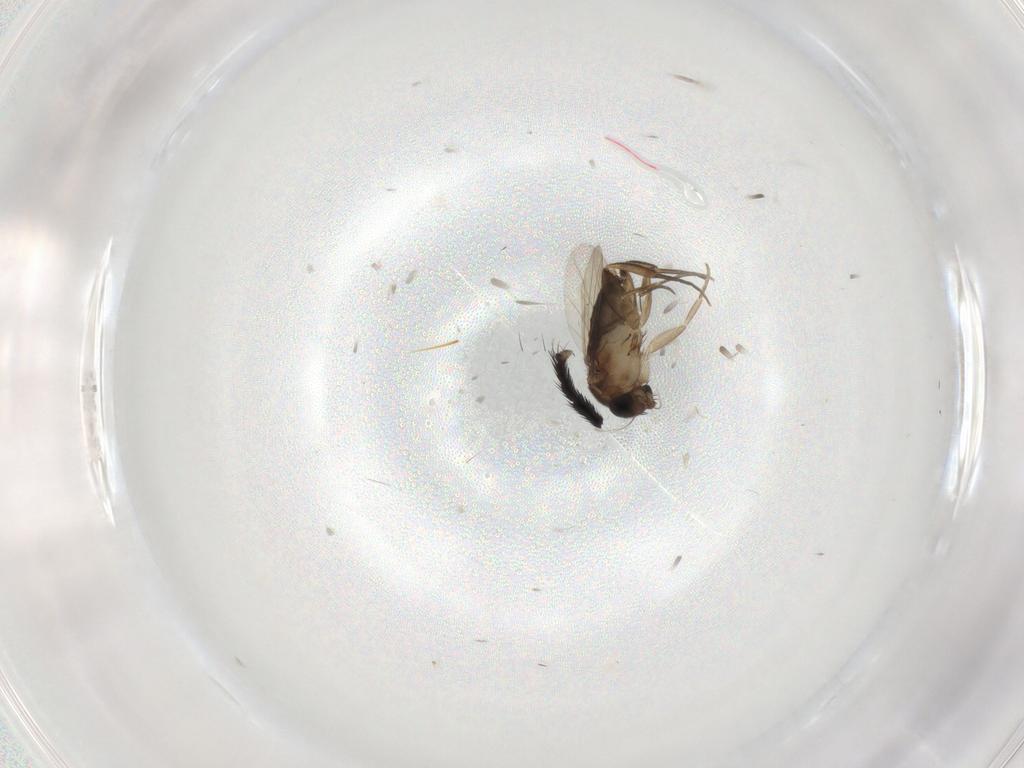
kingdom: Animalia
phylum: Arthropoda
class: Insecta
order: Diptera
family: Phoridae
